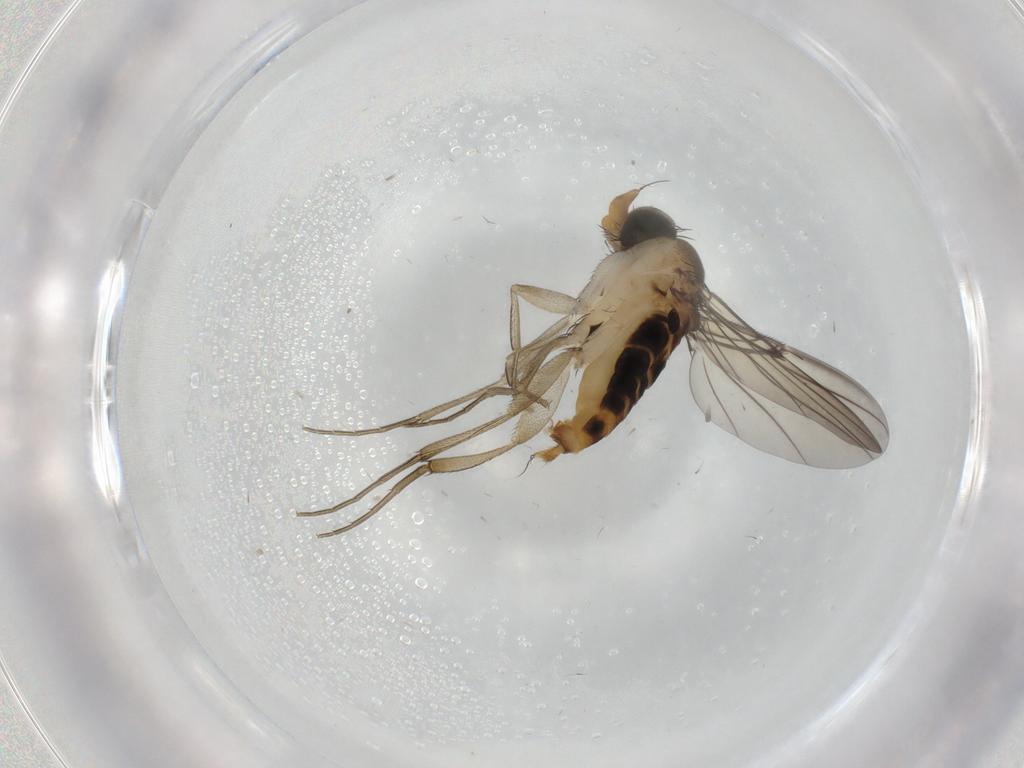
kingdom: Animalia
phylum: Arthropoda
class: Insecta
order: Diptera
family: Phoridae
